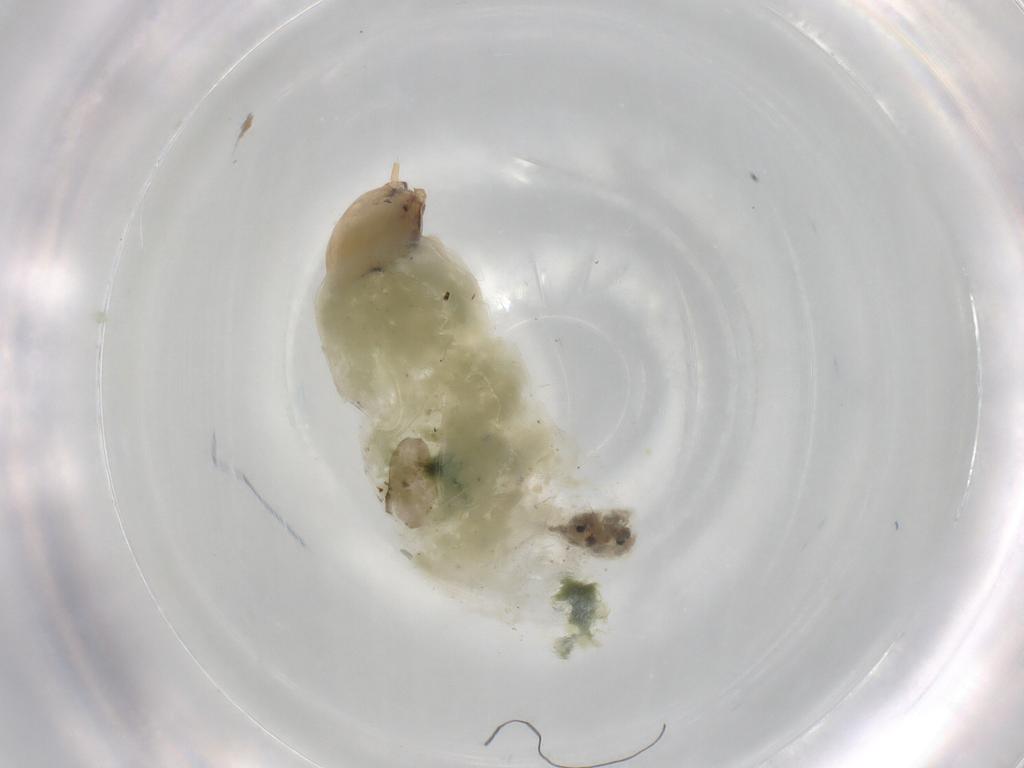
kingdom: Animalia
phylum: Arthropoda
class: Insecta
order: Diptera
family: Chironomidae
